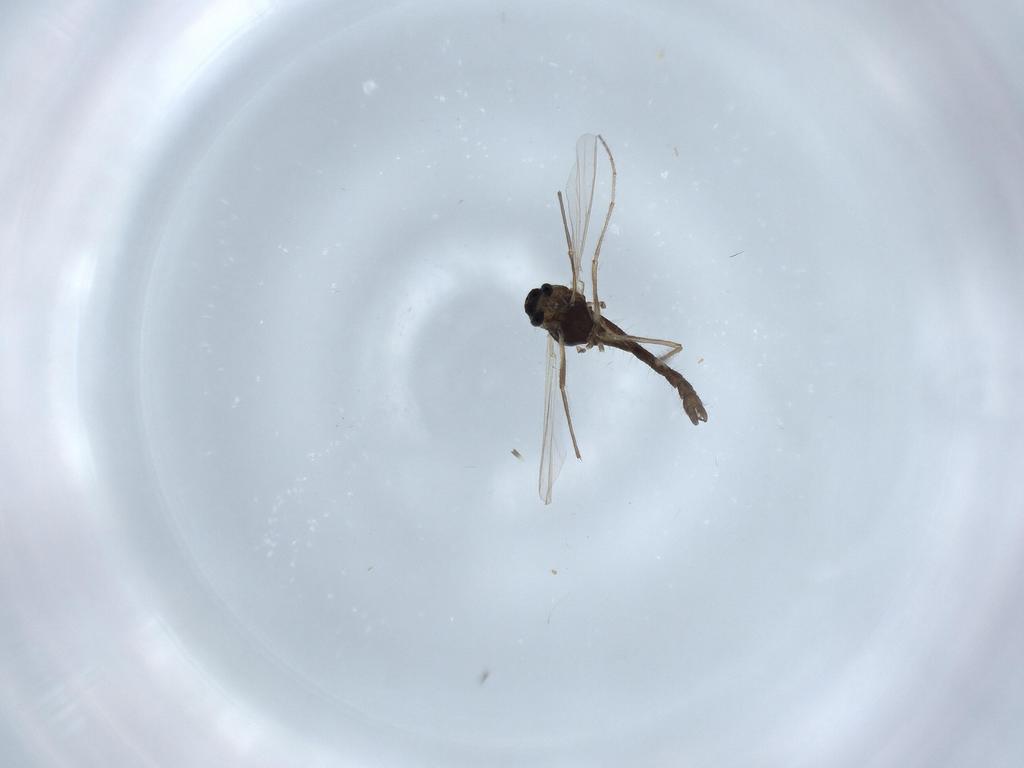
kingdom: Animalia
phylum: Arthropoda
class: Insecta
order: Diptera
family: Chironomidae
